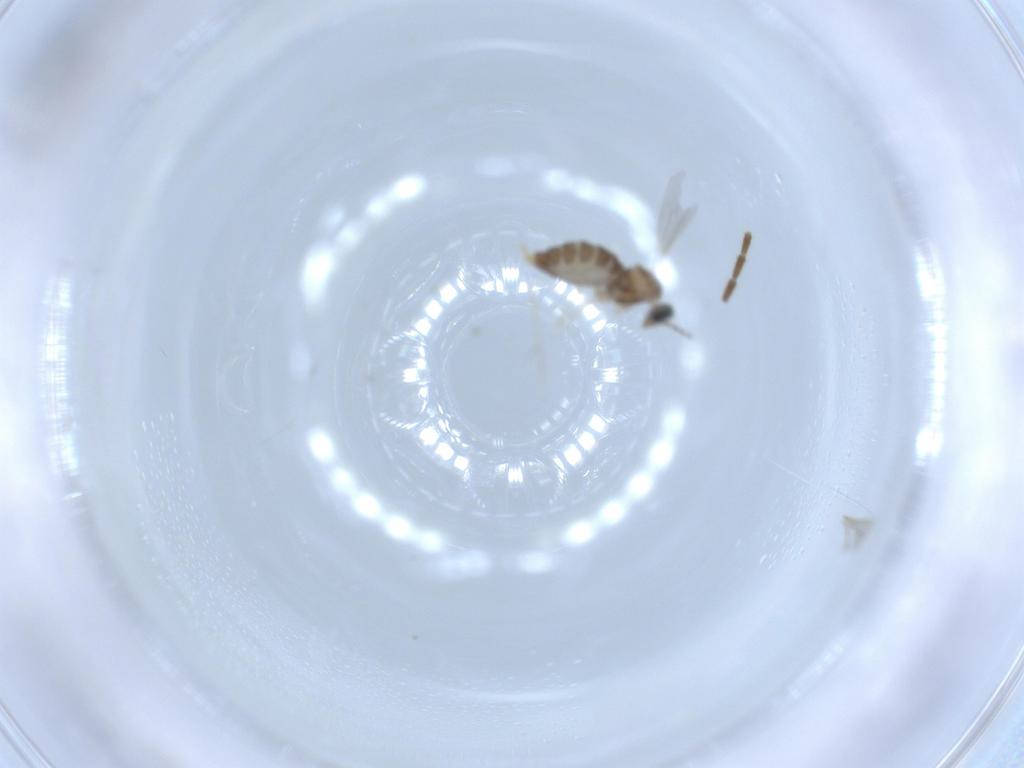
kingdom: Animalia
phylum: Arthropoda
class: Insecta
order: Diptera
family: Cecidomyiidae
